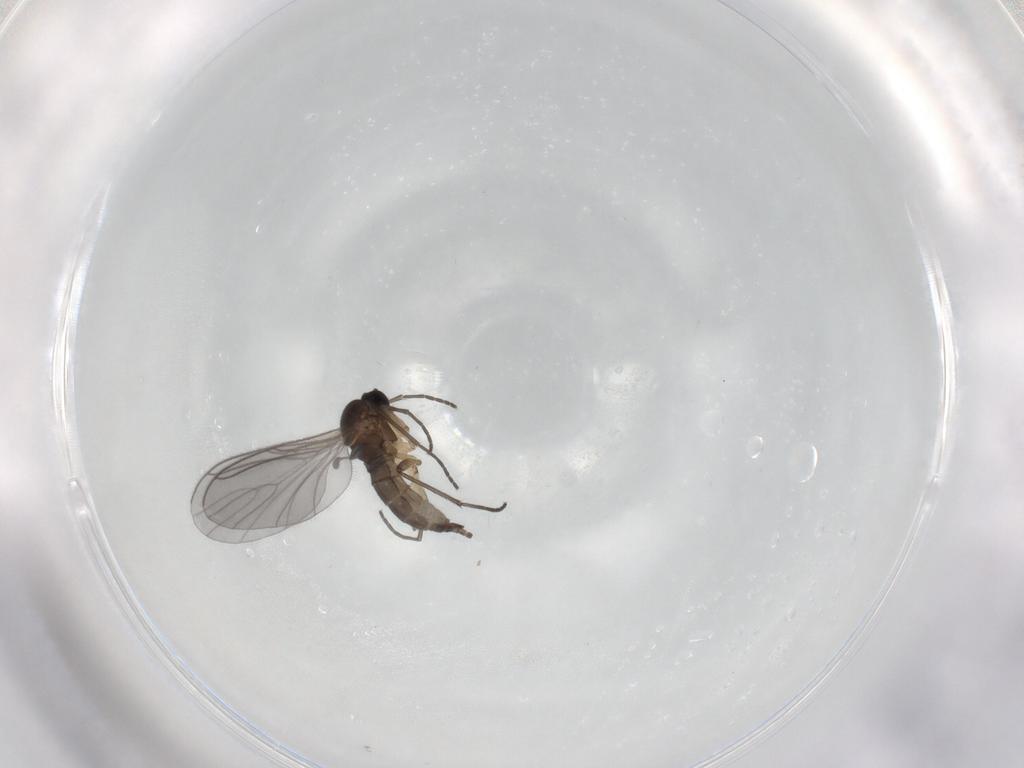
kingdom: Animalia
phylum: Arthropoda
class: Insecta
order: Diptera
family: Sciaridae
